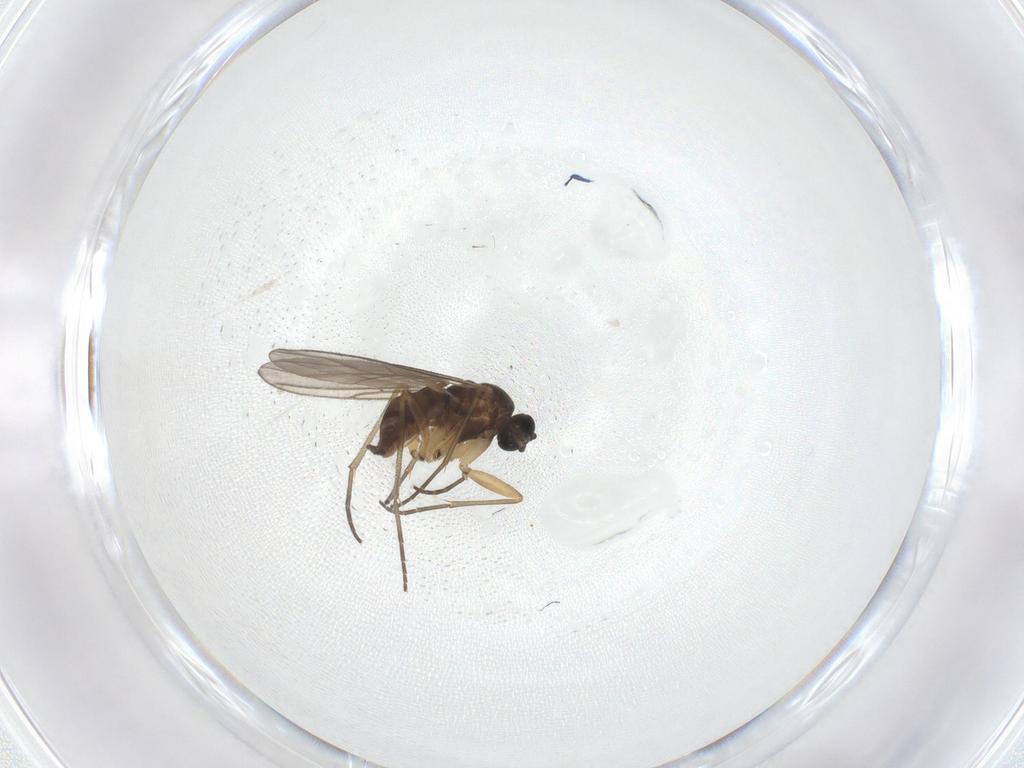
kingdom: Animalia
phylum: Arthropoda
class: Insecta
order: Diptera
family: Sciaridae
